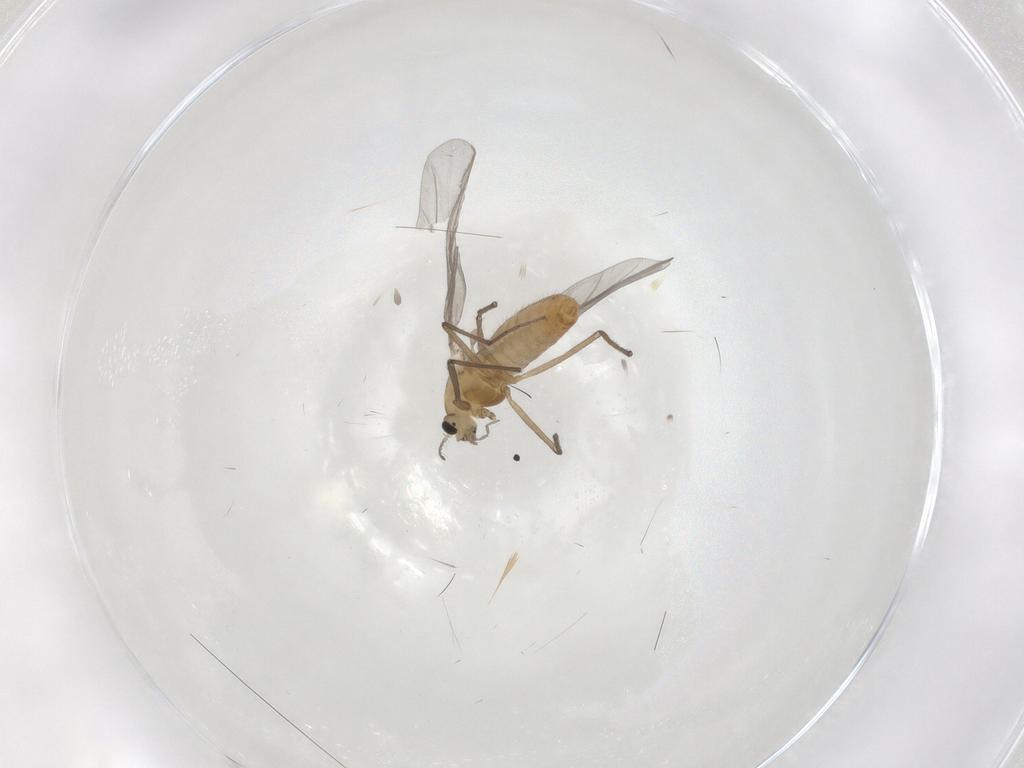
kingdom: Animalia
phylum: Arthropoda
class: Insecta
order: Diptera
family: Chironomidae
